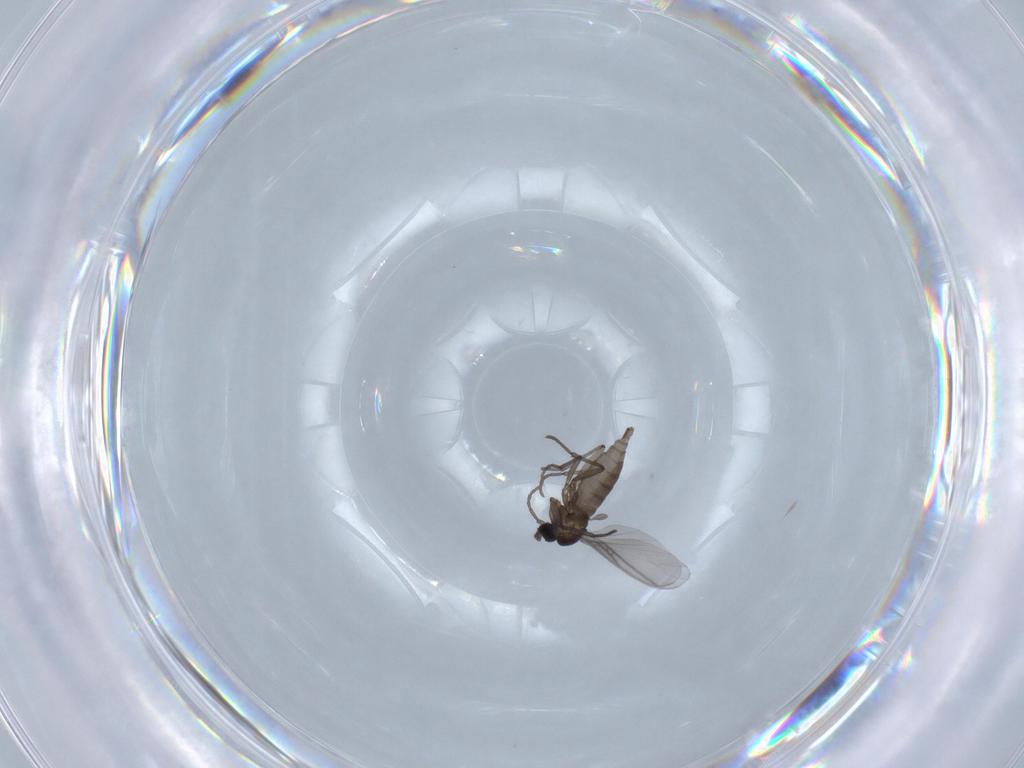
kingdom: Animalia
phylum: Arthropoda
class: Insecta
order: Diptera
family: Sciaridae
